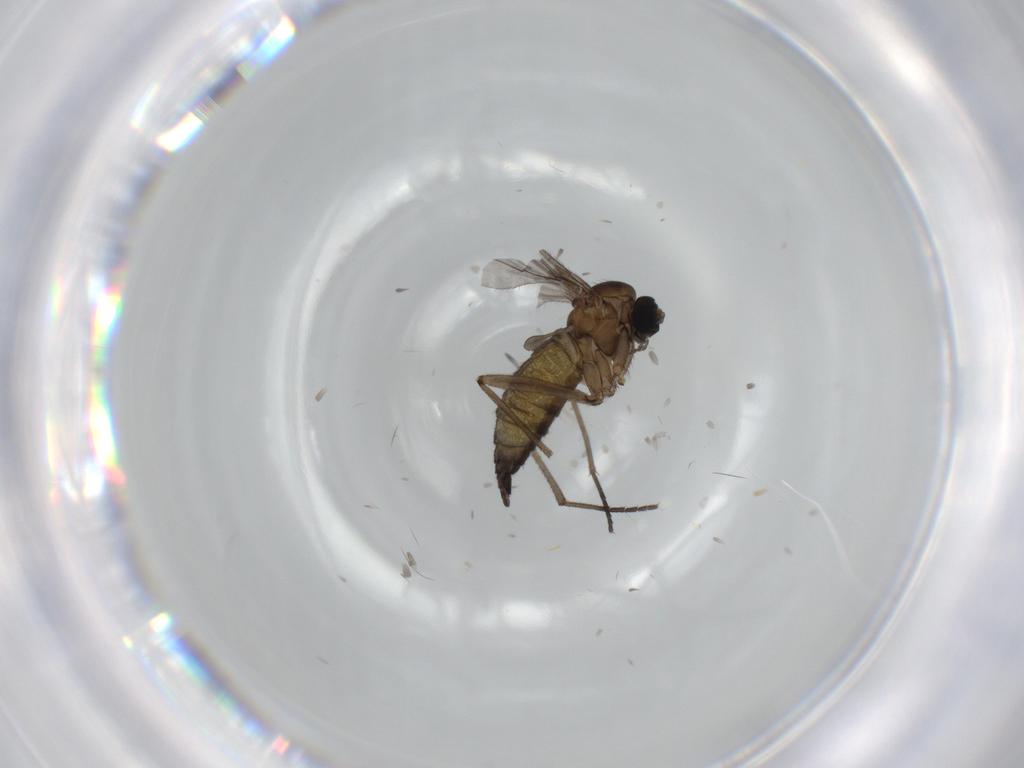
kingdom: Animalia
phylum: Arthropoda
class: Insecta
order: Diptera
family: Sciaridae
